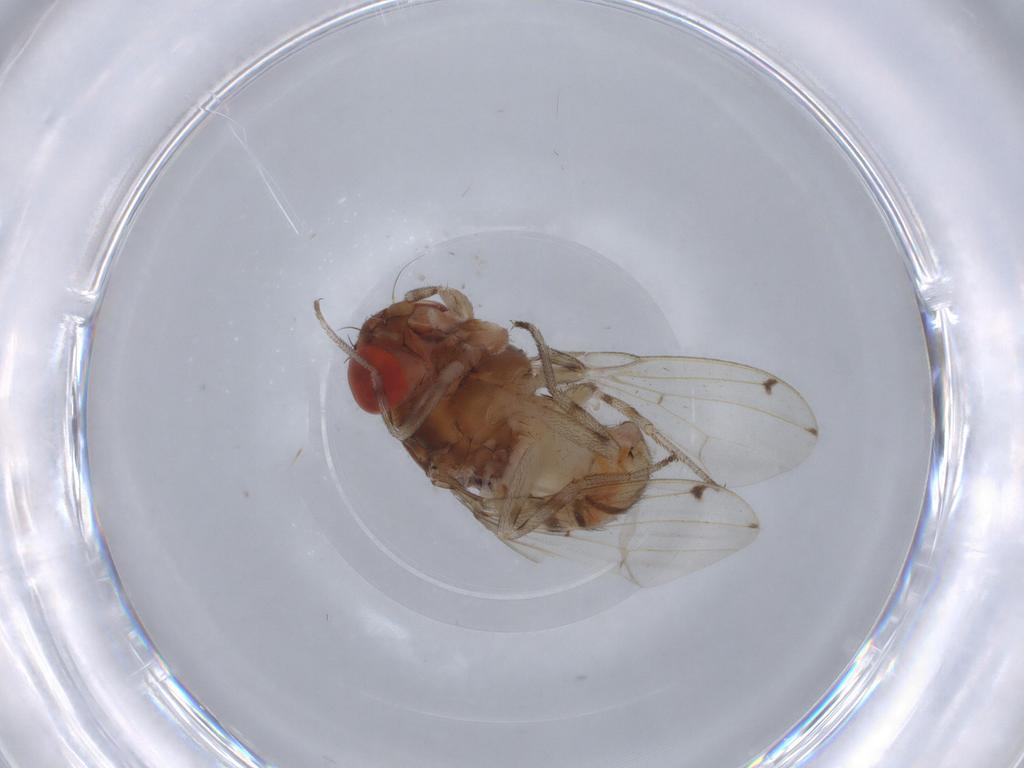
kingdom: Animalia
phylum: Arthropoda
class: Insecta
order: Diptera
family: Drosophilidae
